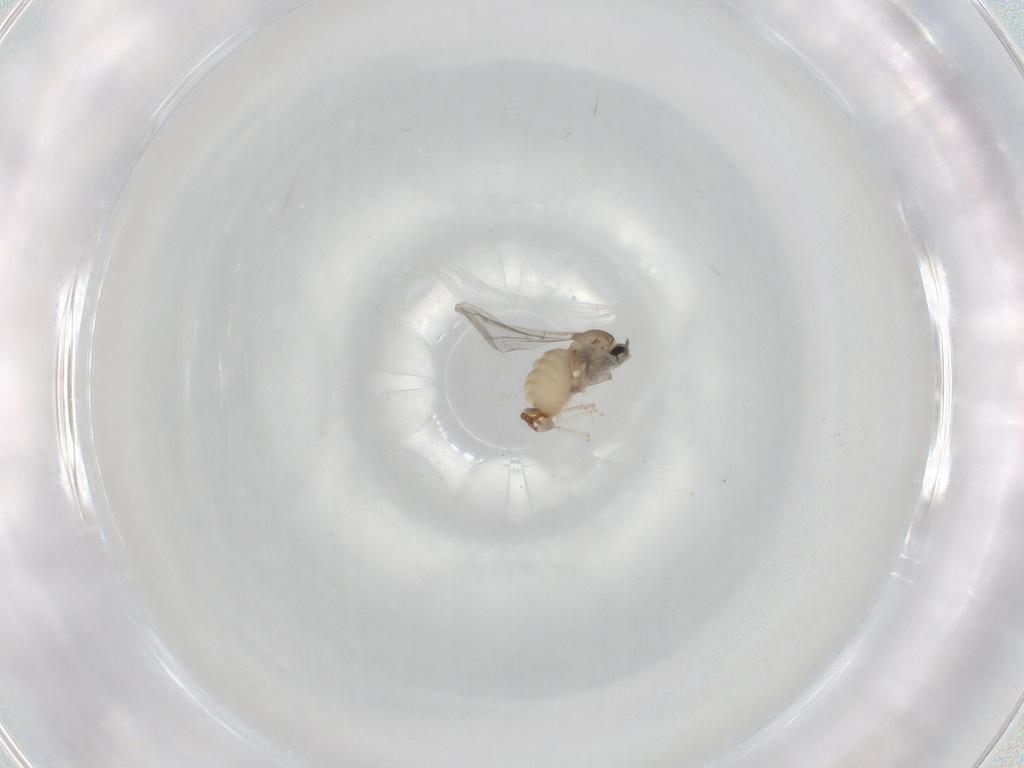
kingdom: Animalia
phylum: Arthropoda
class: Insecta
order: Diptera
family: Cecidomyiidae
